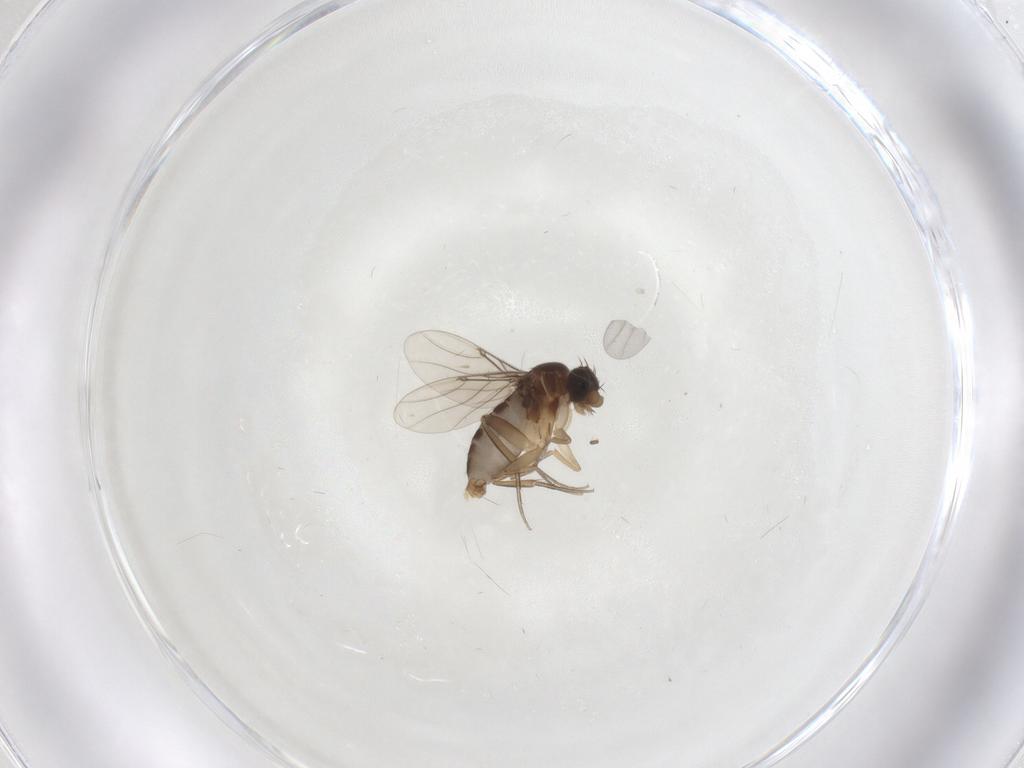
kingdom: Animalia
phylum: Arthropoda
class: Insecta
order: Diptera
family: Phoridae
